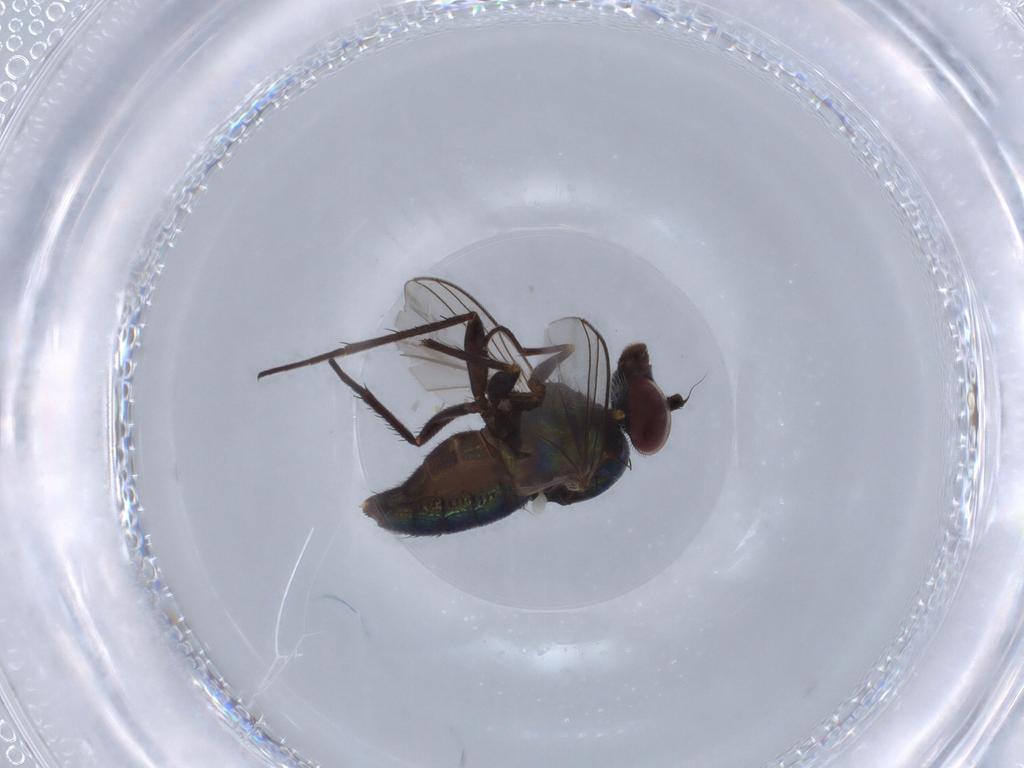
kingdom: Animalia
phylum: Arthropoda
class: Insecta
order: Diptera
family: Dolichopodidae
